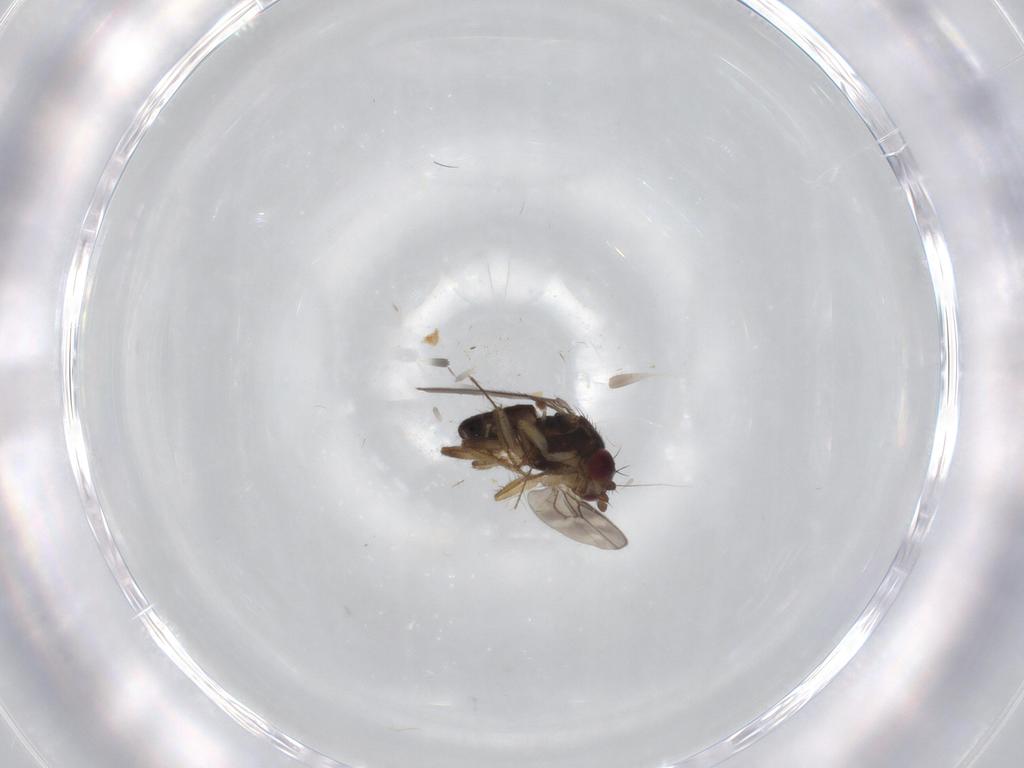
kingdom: Animalia
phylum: Arthropoda
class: Insecta
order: Diptera
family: Sphaeroceridae
